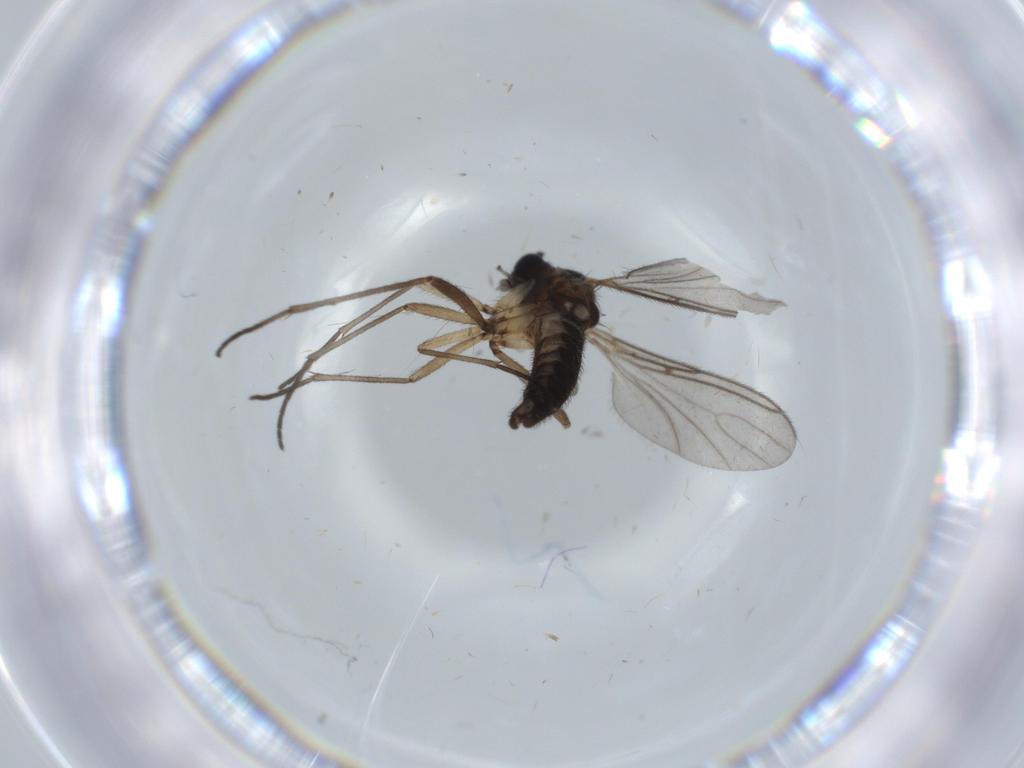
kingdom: Animalia
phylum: Arthropoda
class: Insecta
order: Diptera
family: Sciaridae
